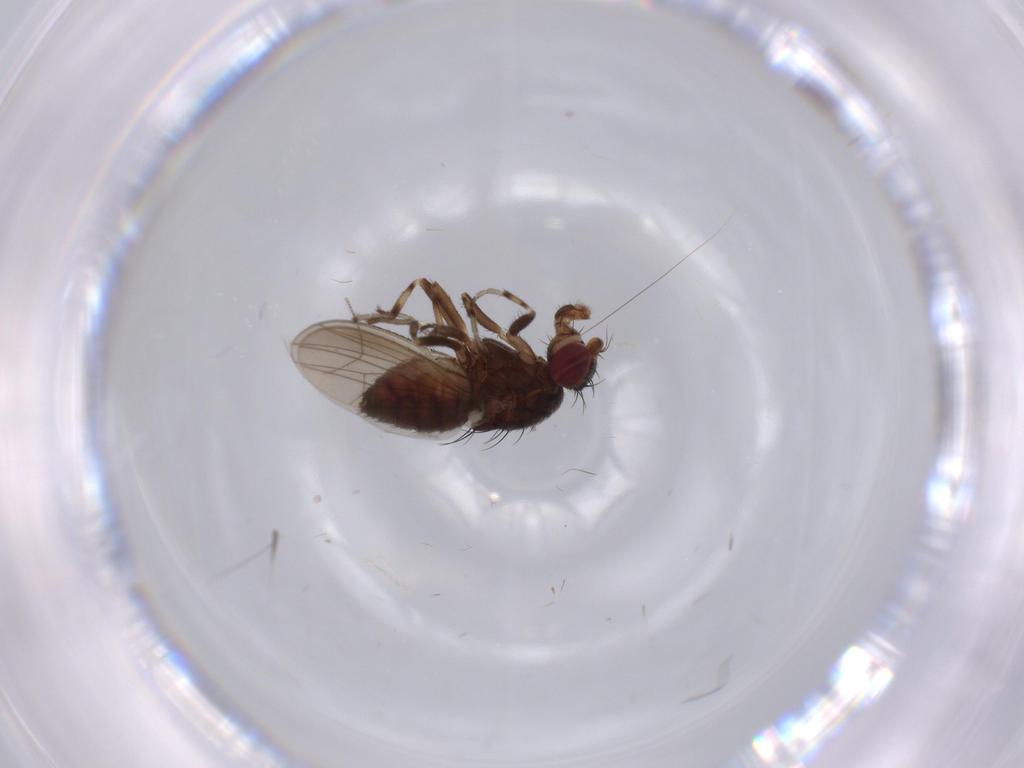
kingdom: Animalia
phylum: Arthropoda
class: Insecta
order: Diptera
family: Heleomyzidae
